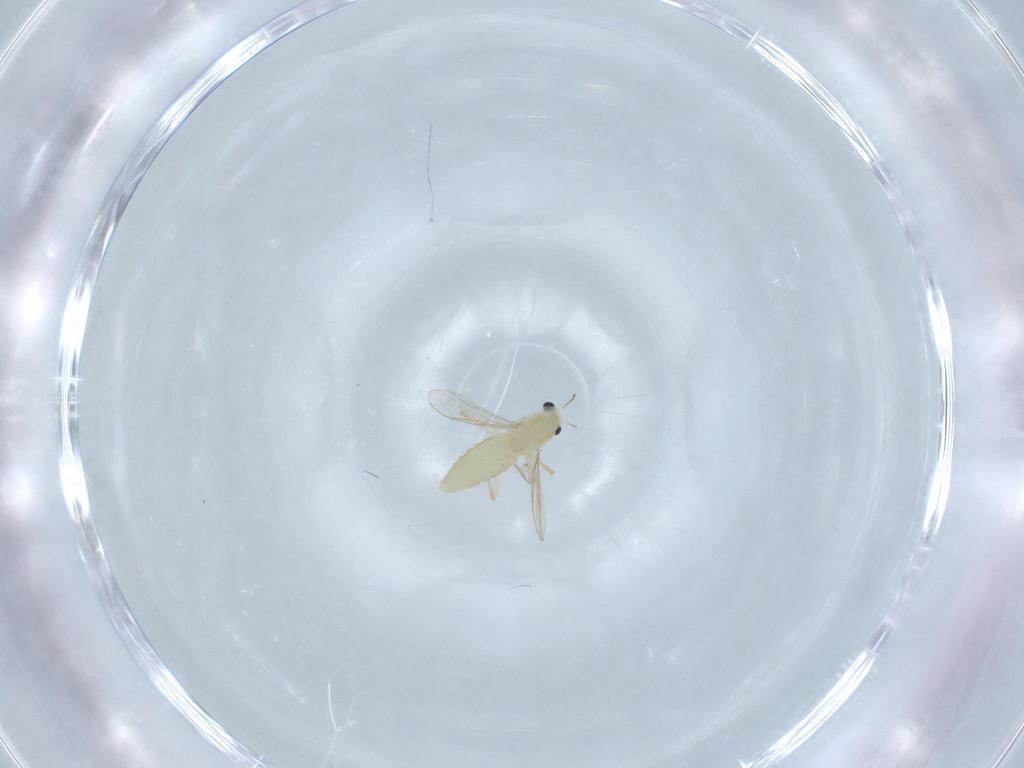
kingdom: Animalia
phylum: Arthropoda
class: Insecta
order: Diptera
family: Chironomidae
